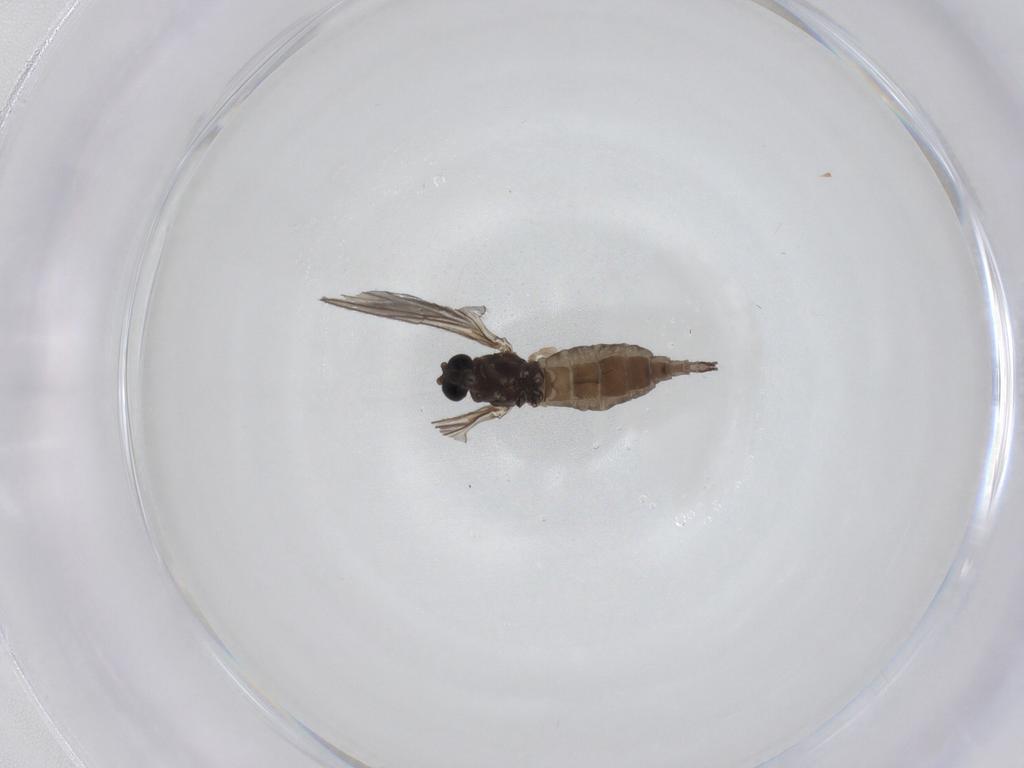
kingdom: Animalia
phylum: Arthropoda
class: Insecta
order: Diptera
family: Sciaridae
